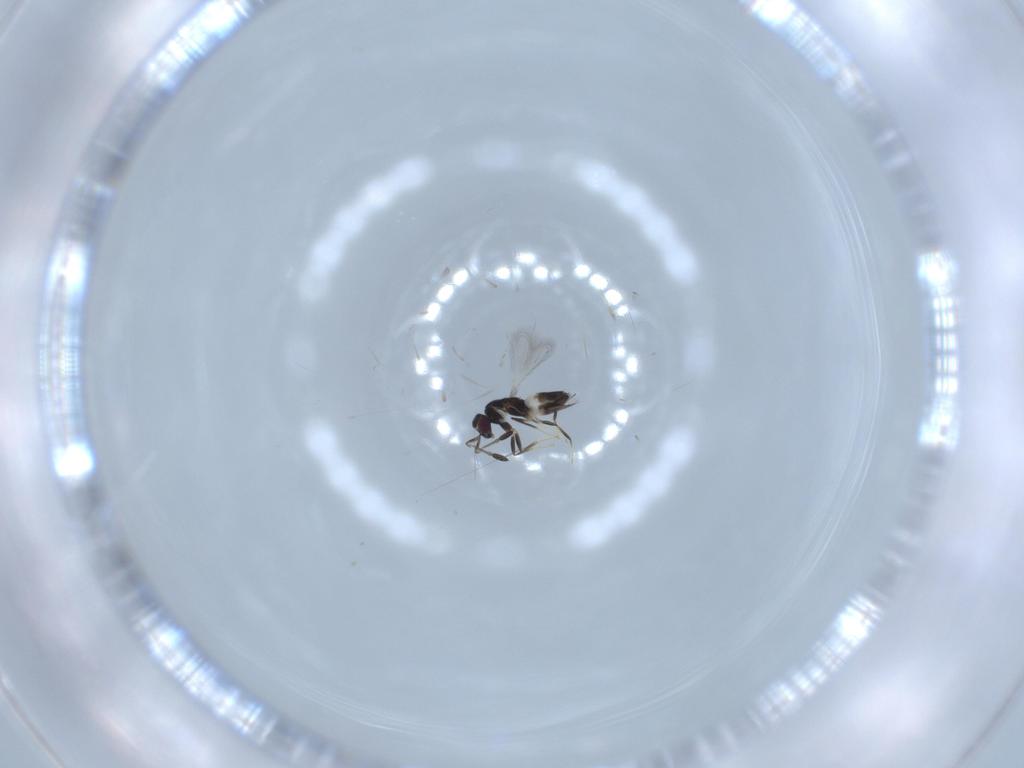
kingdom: Animalia
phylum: Arthropoda
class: Insecta
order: Hymenoptera
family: Mymaridae
